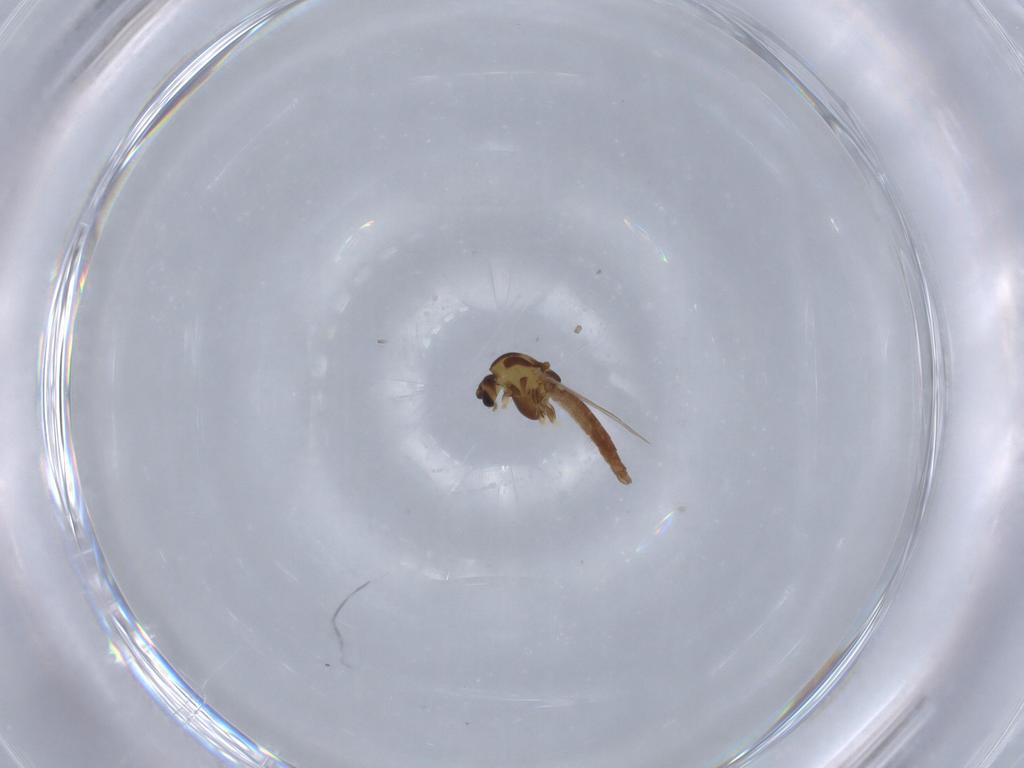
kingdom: Animalia
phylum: Arthropoda
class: Insecta
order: Diptera
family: Chironomidae
